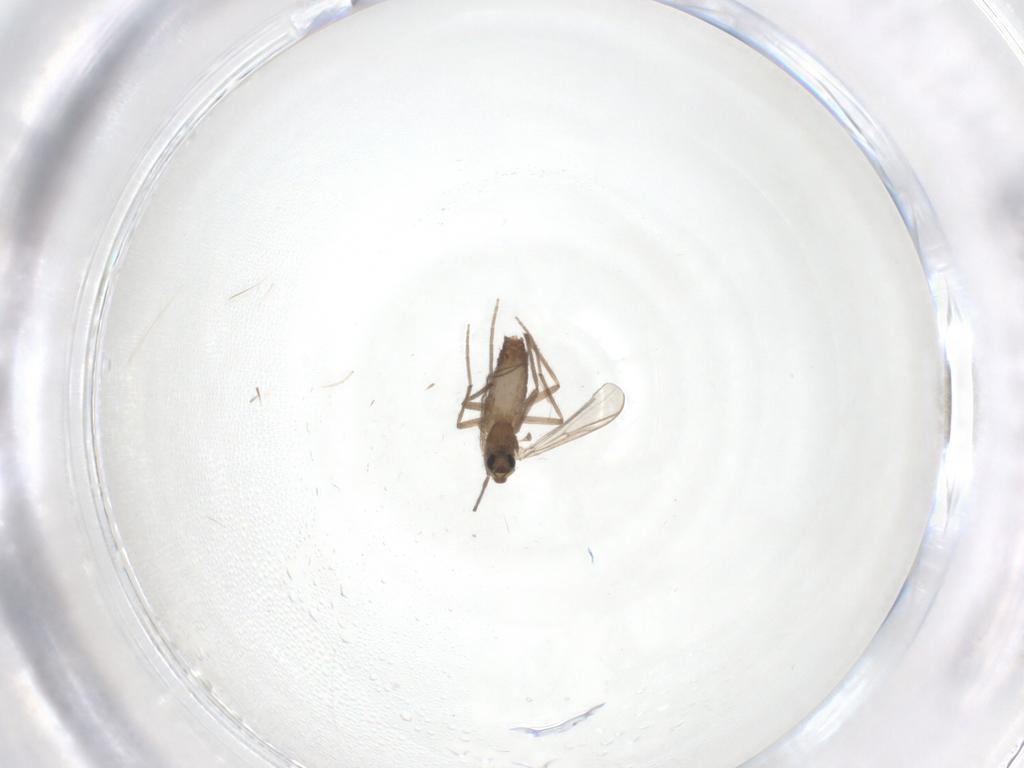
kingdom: Animalia
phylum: Arthropoda
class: Insecta
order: Diptera
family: Chironomidae
